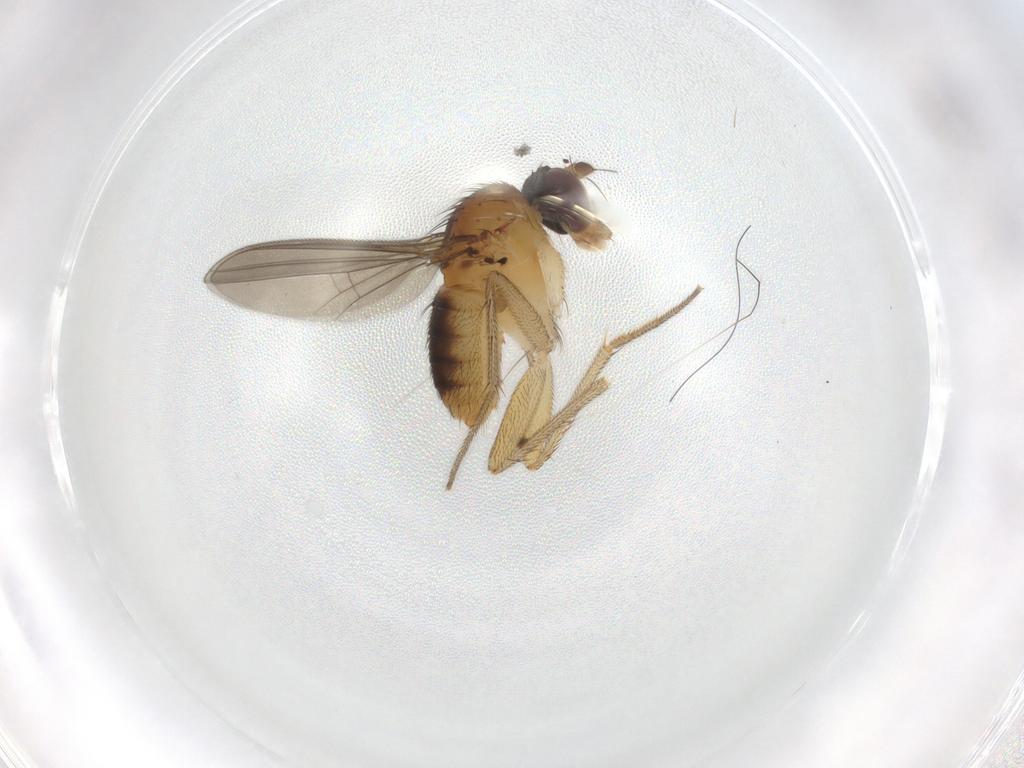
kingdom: Animalia
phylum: Arthropoda
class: Insecta
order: Diptera
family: Dolichopodidae
